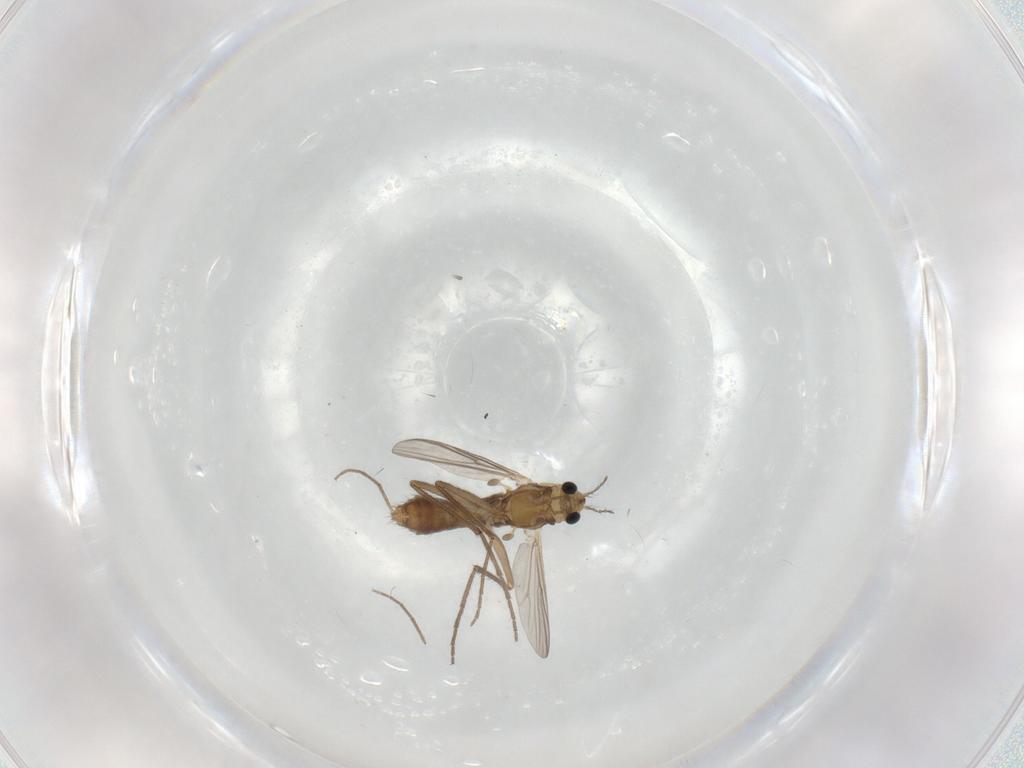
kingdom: Animalia
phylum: Arthropoda
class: Insecta
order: Diptera
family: Chironomidae
